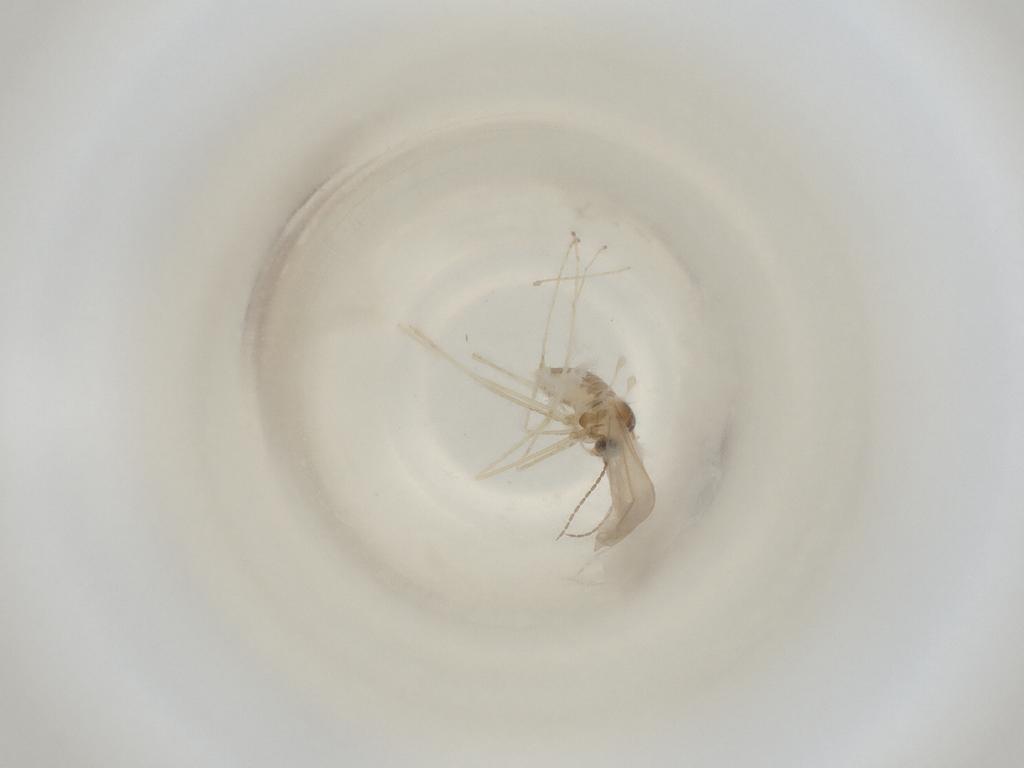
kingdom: Animalia
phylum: Arthropoda
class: Insecta
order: Diptera
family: Cecidomyiidae
